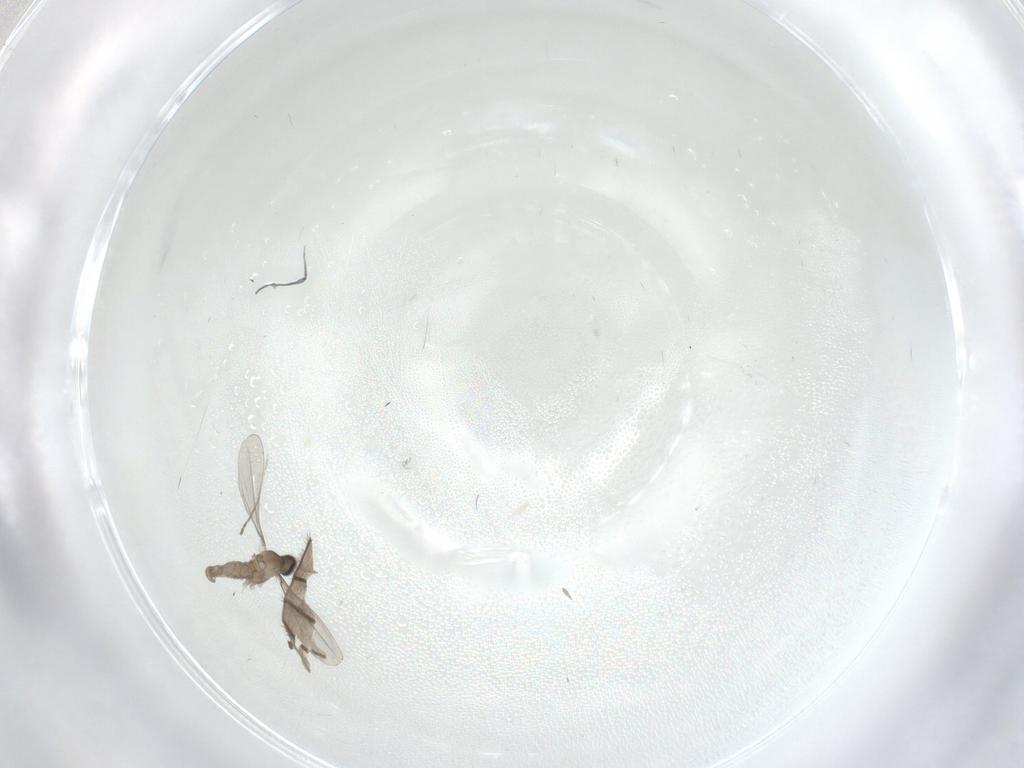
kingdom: Animalia
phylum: Arthropoda
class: Insecta
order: Diptera
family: Cecidomyiidae
